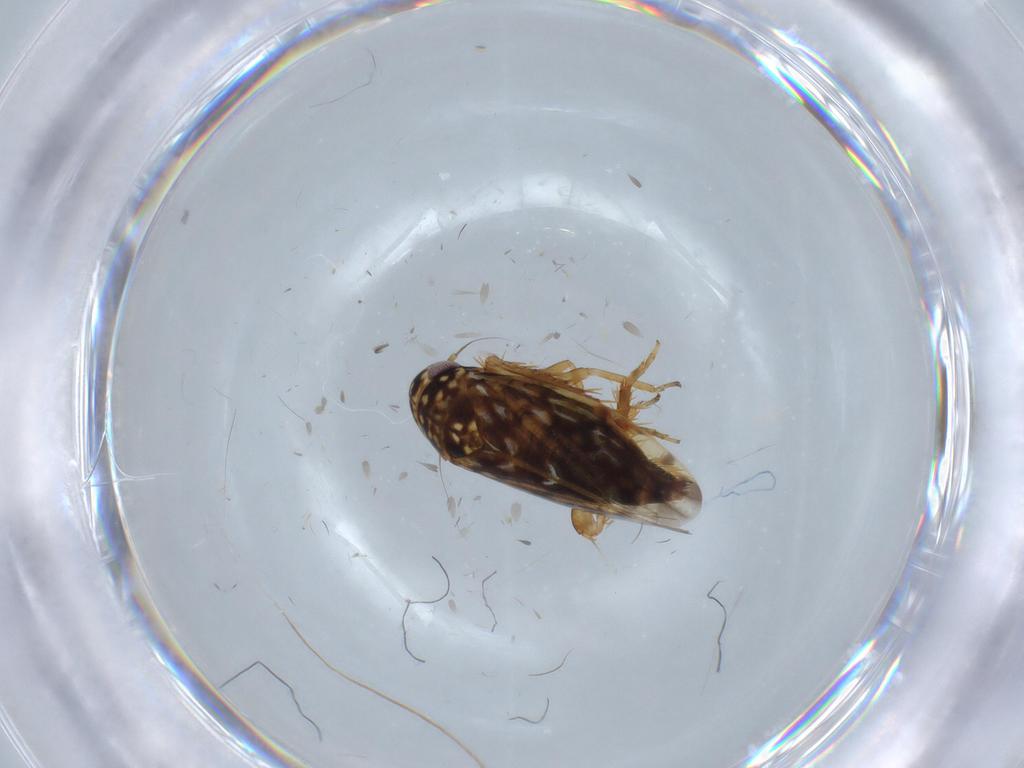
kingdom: Animalia
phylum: Arthropoda
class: Insecta
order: Hemiptera
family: Cicadellidae
